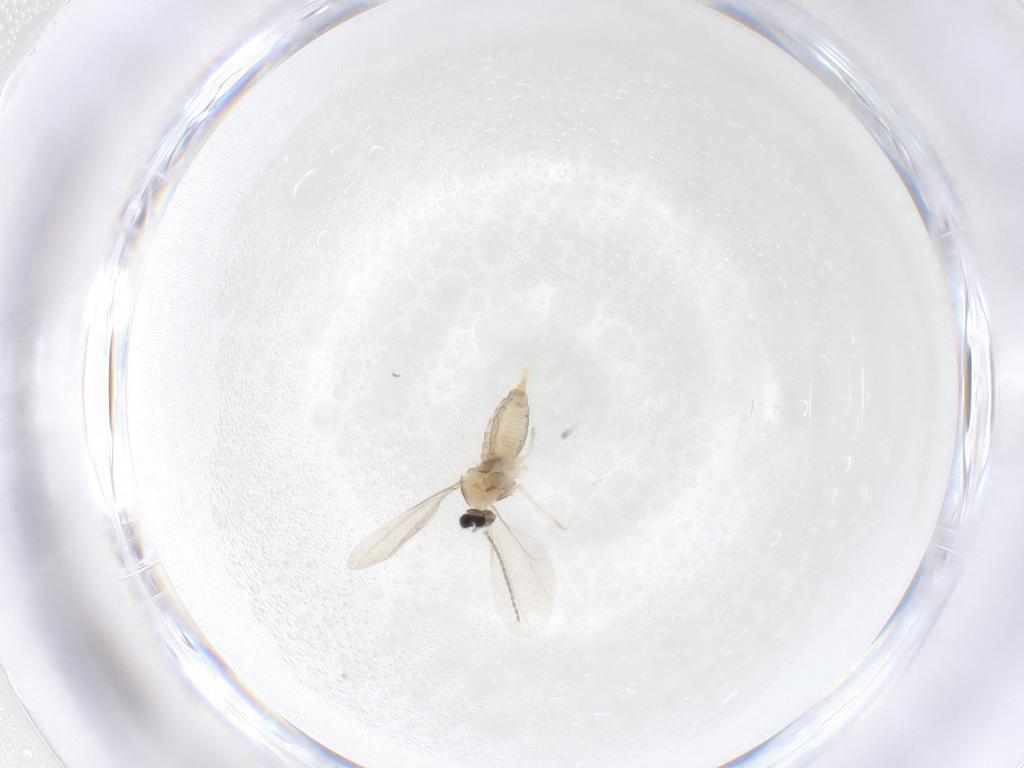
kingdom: Animalia
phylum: Arthropoda
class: Insecta
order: Diptera
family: Cecidomyiidae
